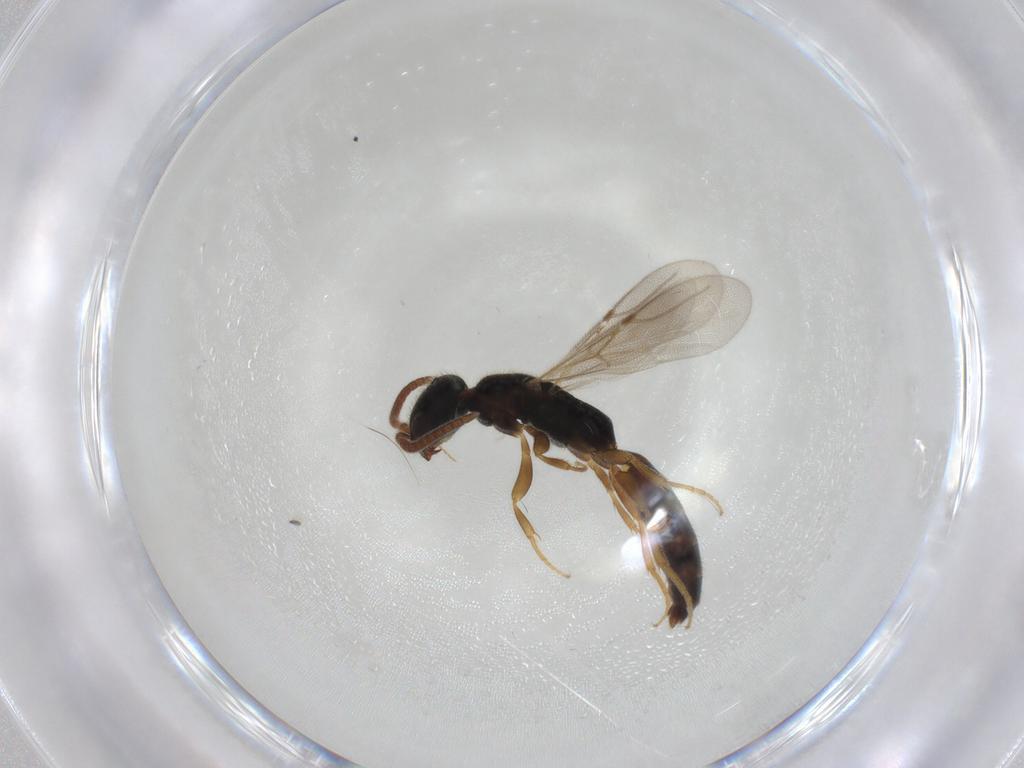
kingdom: Animalia
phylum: Arthropoda
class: Insecta
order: Hymenoptera
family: Bethylidae
